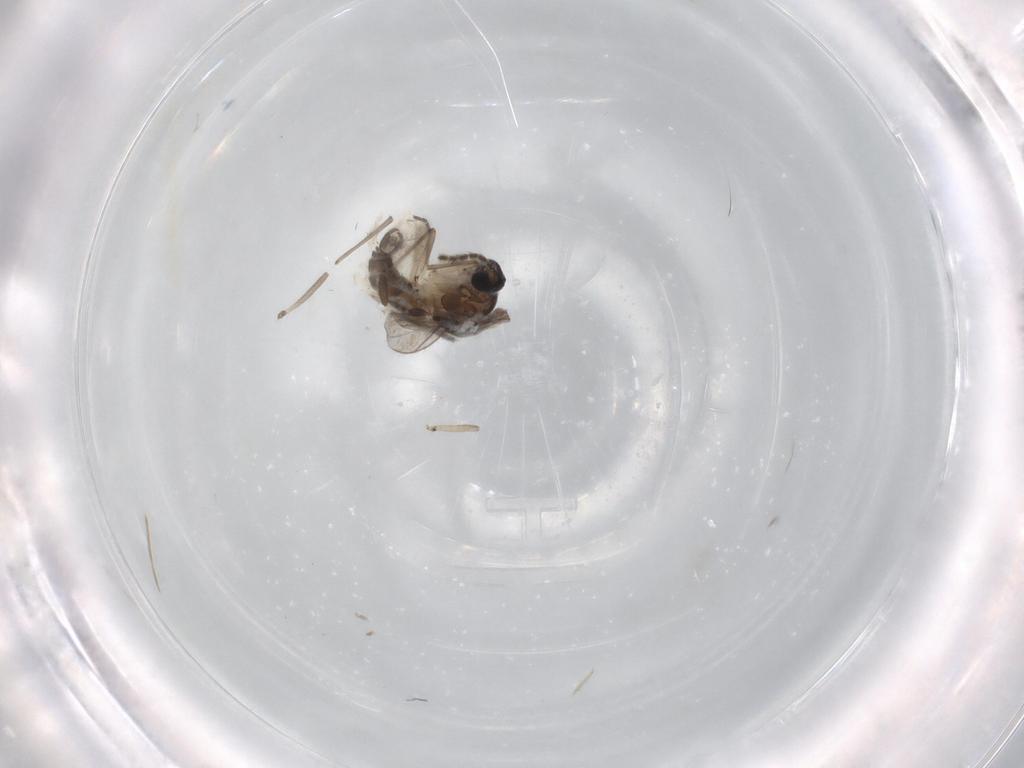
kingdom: Animalia
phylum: Arthropoda
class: Insecta
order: Diptera
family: Sciaridae
